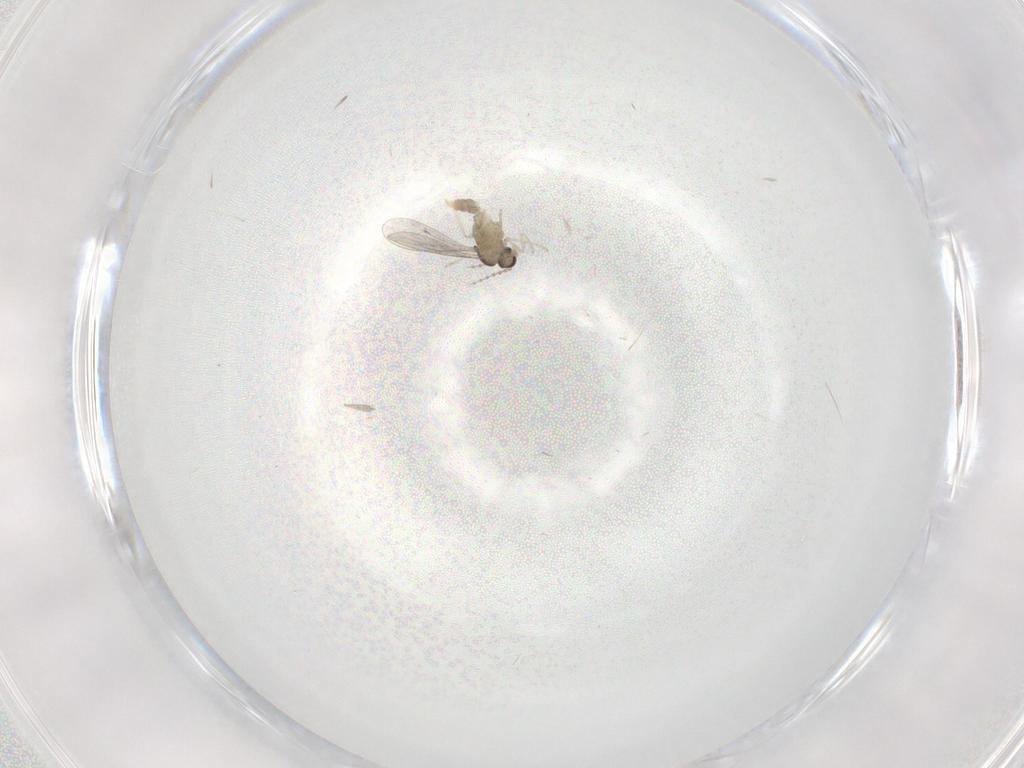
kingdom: Animalia
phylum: Arthropoda
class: Insecta
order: Diptera
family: Cecidomyiidae
